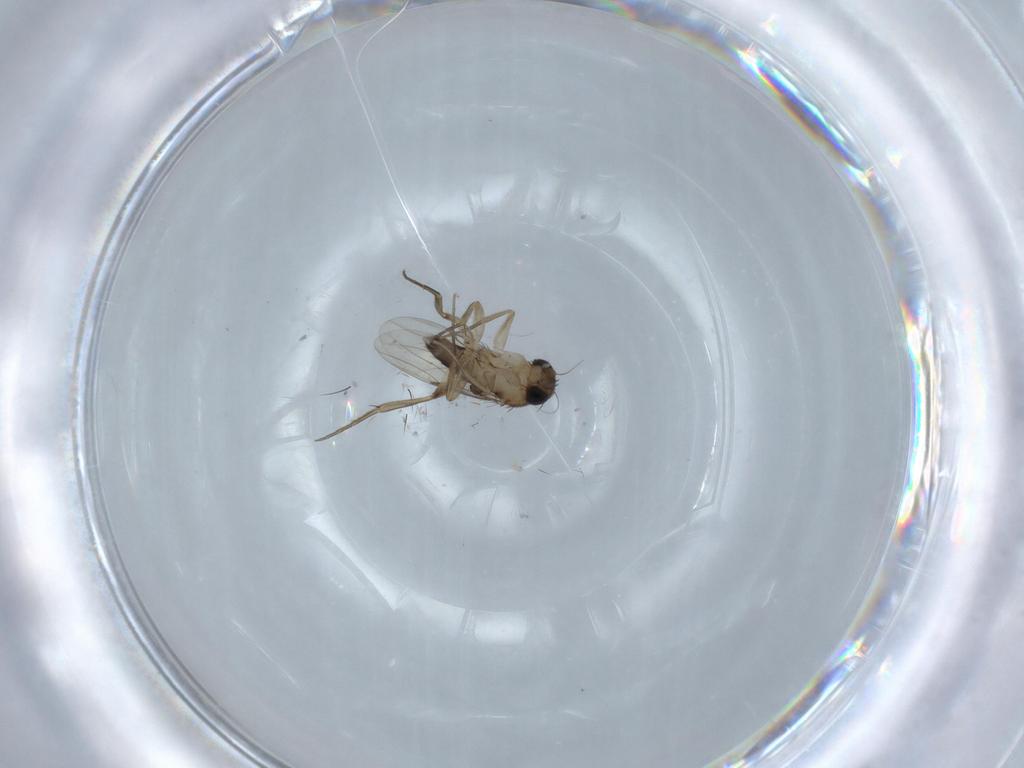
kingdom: Animalia
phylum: Arthropoda
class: Insecta
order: Diptera
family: Phoridae
